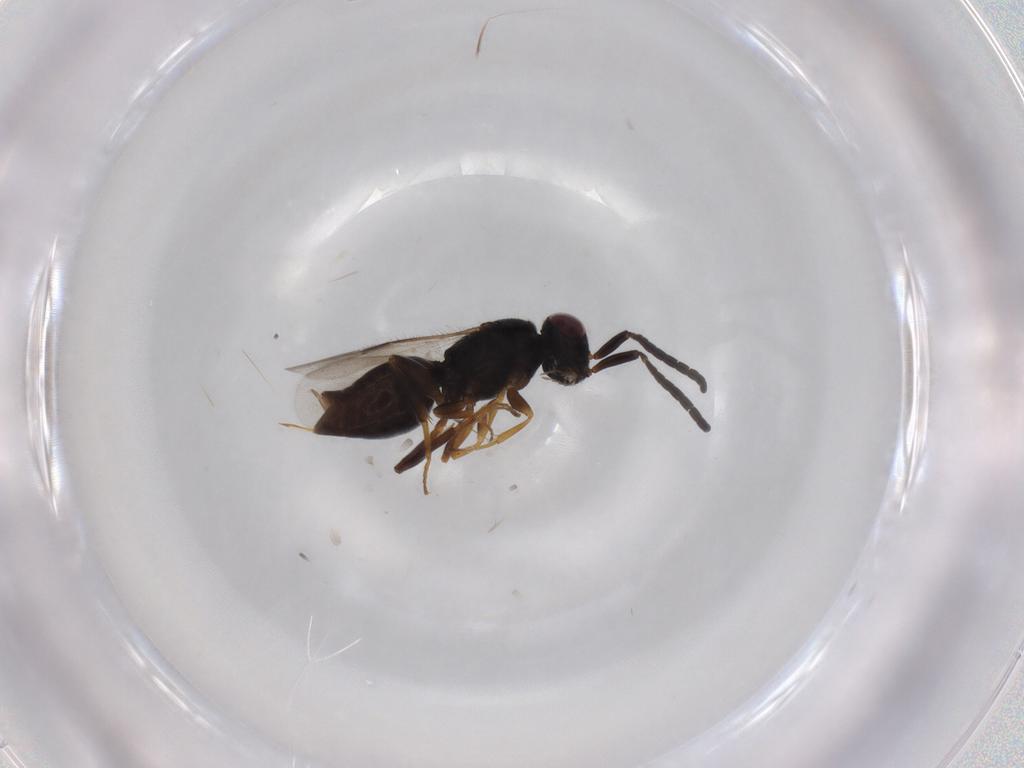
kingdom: Animalia
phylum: Arthropoda
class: Insecta
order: Hymenoptera
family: Megaspilidae
